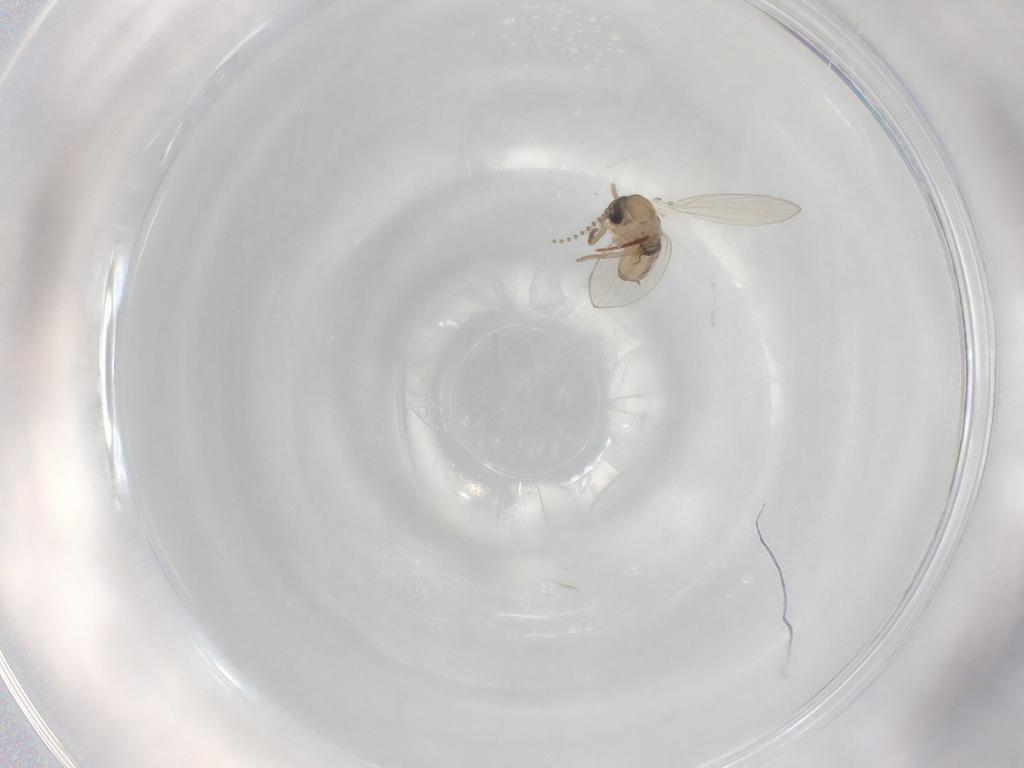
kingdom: Animalia
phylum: Arthropoda
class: Insecta
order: Diptera
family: Psychodidae
